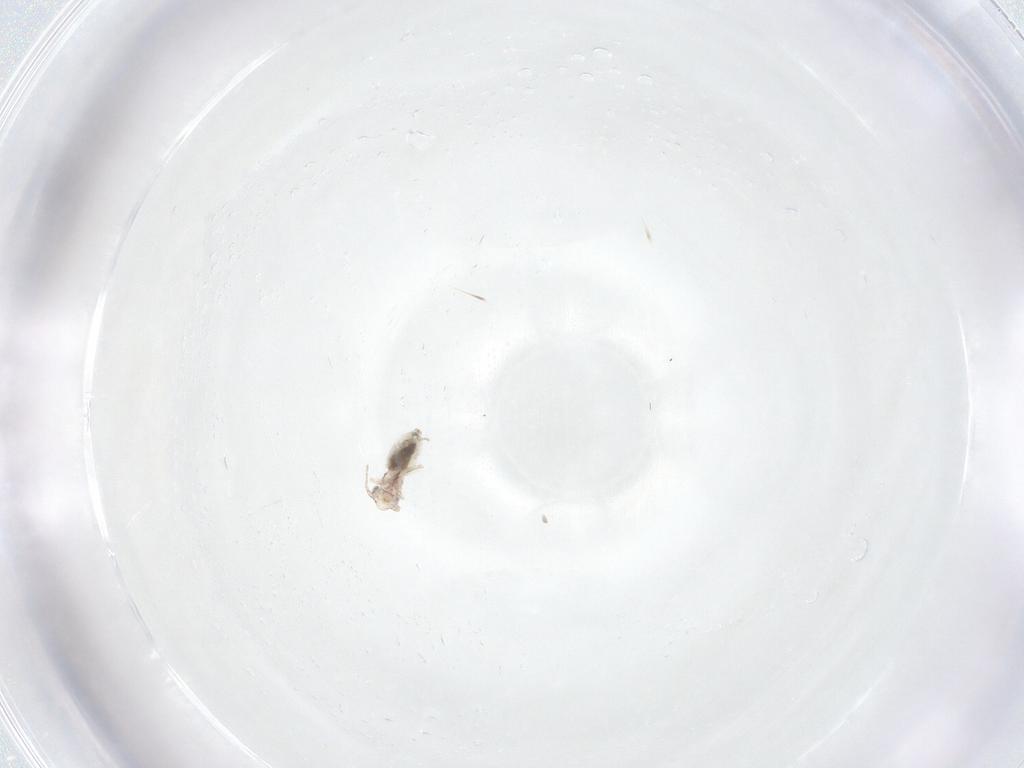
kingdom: Animalia
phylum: Arthropoda
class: Insecta
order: Psocodea
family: Lepidopsocidae
